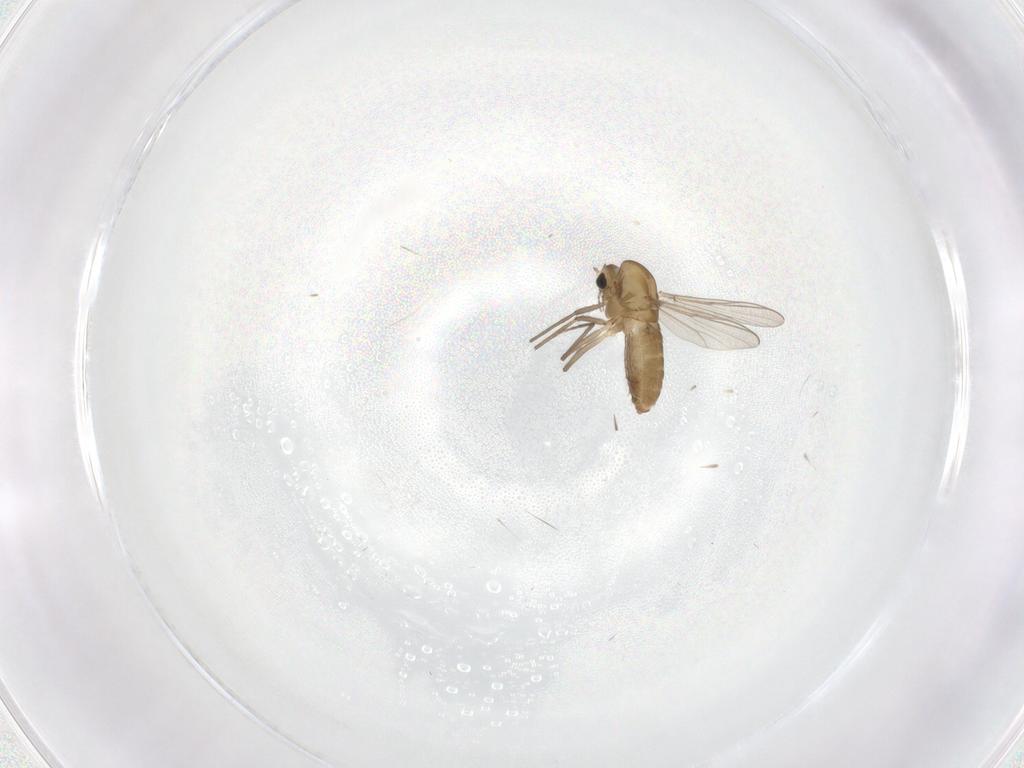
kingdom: Animalia
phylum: Arthropoda
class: Insecta
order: Diptera
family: Chironomidae
